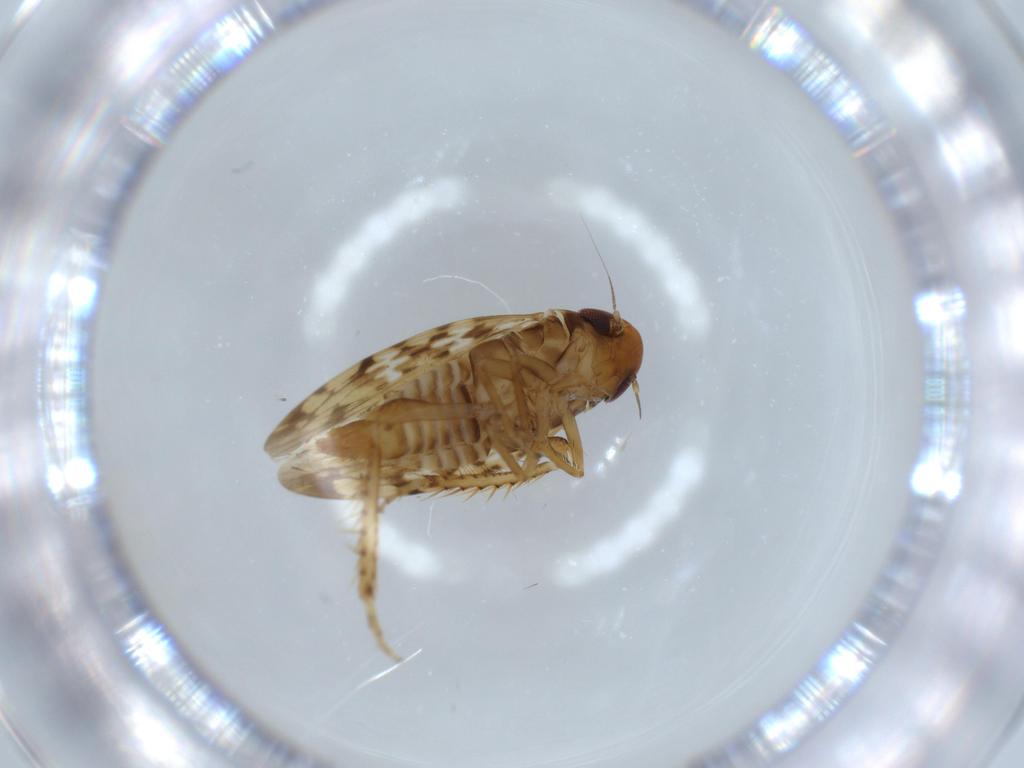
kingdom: Animalia
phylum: Arthropoda
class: Insecta
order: Hemiptera
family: Cicadellidae
